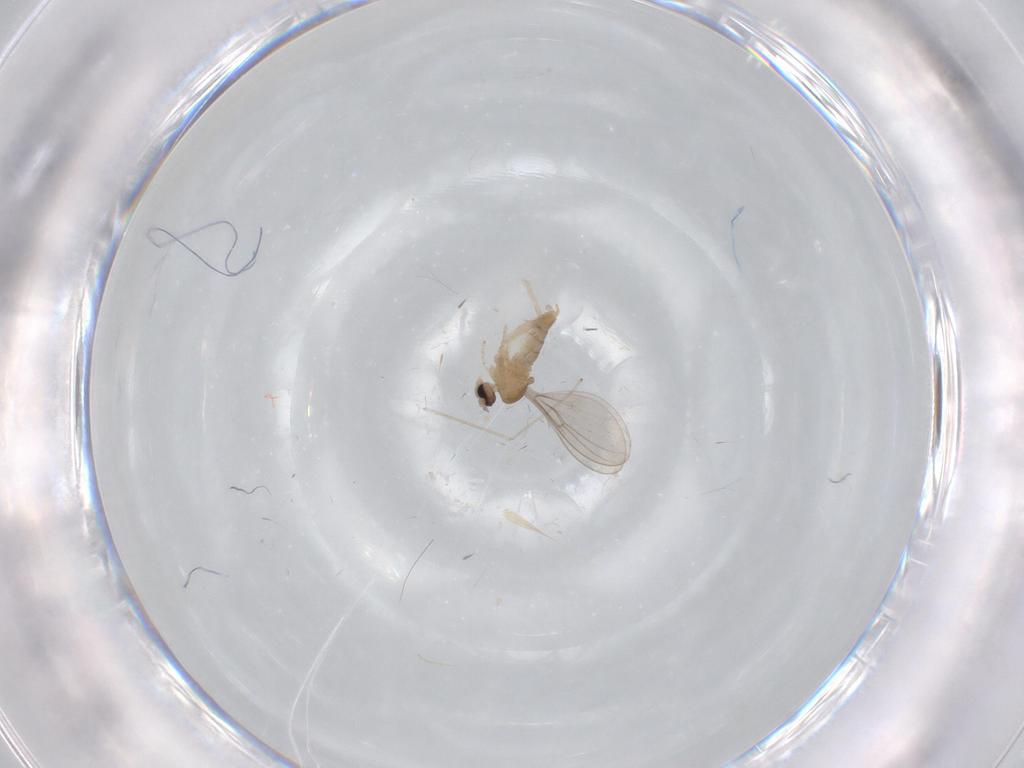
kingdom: Animalia
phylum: Arthropoda
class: Insecta
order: Diptera
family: Cecidomyiidae
